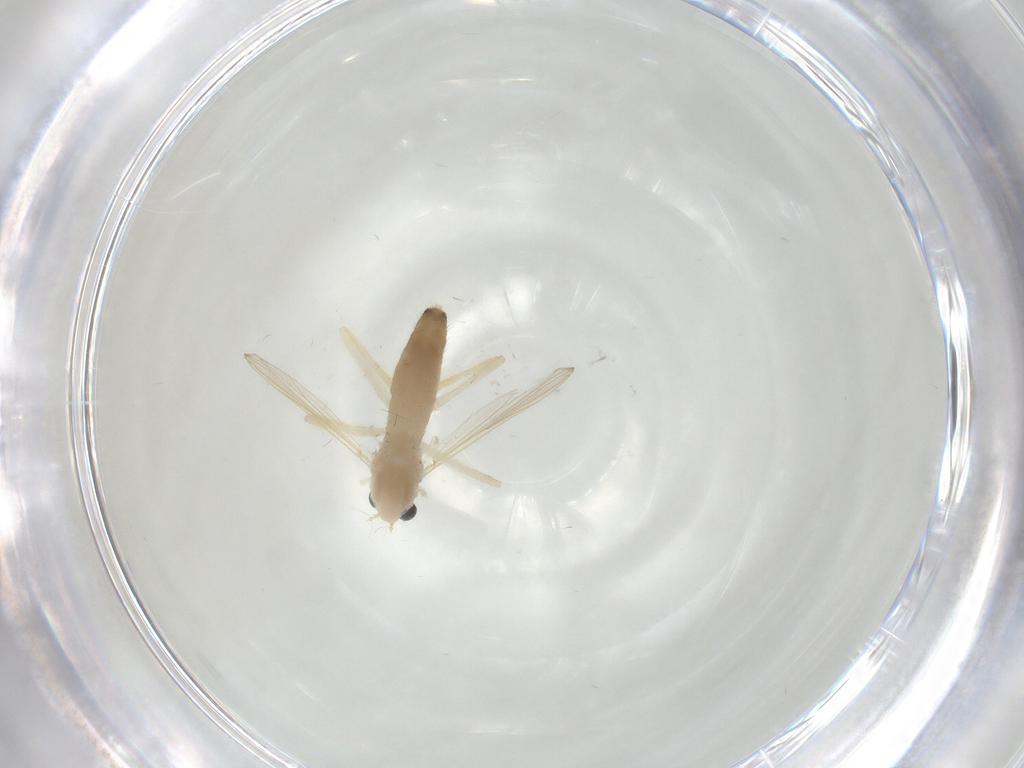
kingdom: Animalia
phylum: Arthropoda
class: Insecta
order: Diptera
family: Chironomidae
